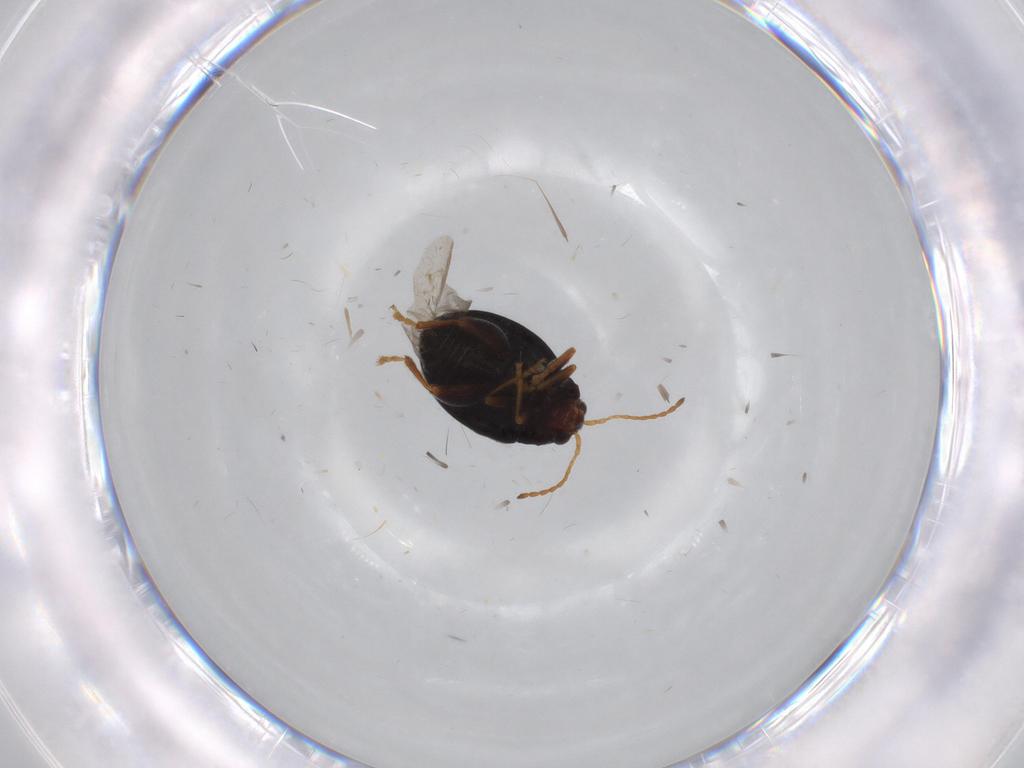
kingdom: Animalia
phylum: Arthropoda
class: Insecta
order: Coleoptera
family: Chrysomelidae
